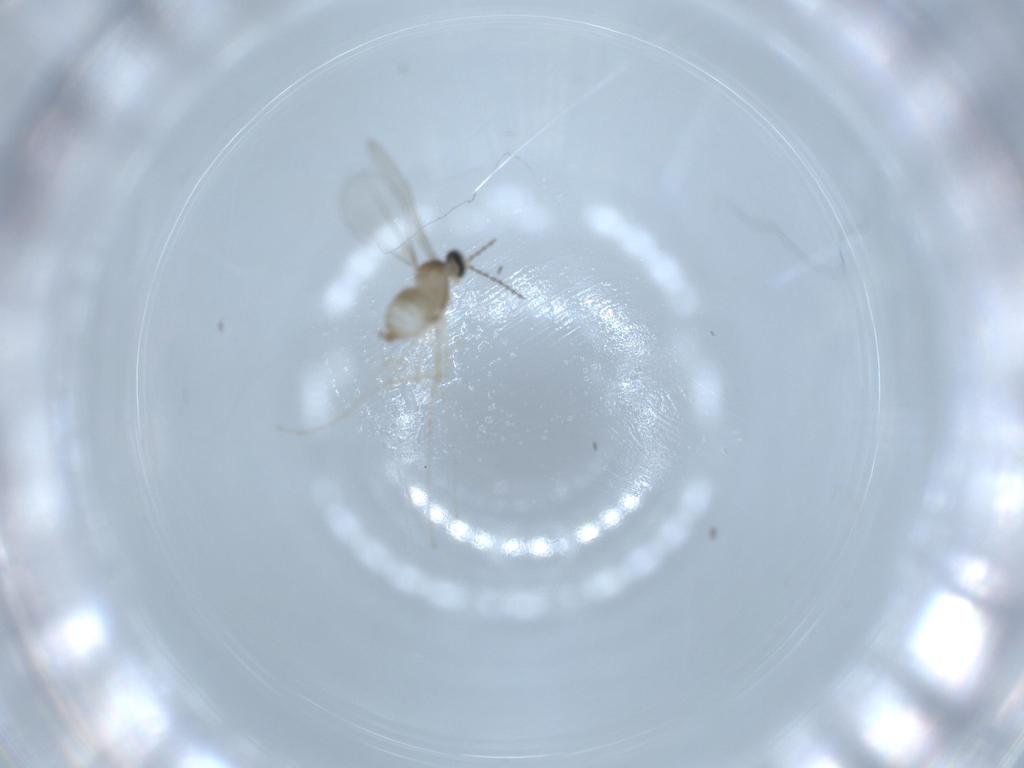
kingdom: Animalia
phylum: Arthropoda
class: Insecta
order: Diptera
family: Cecidomyiidae
